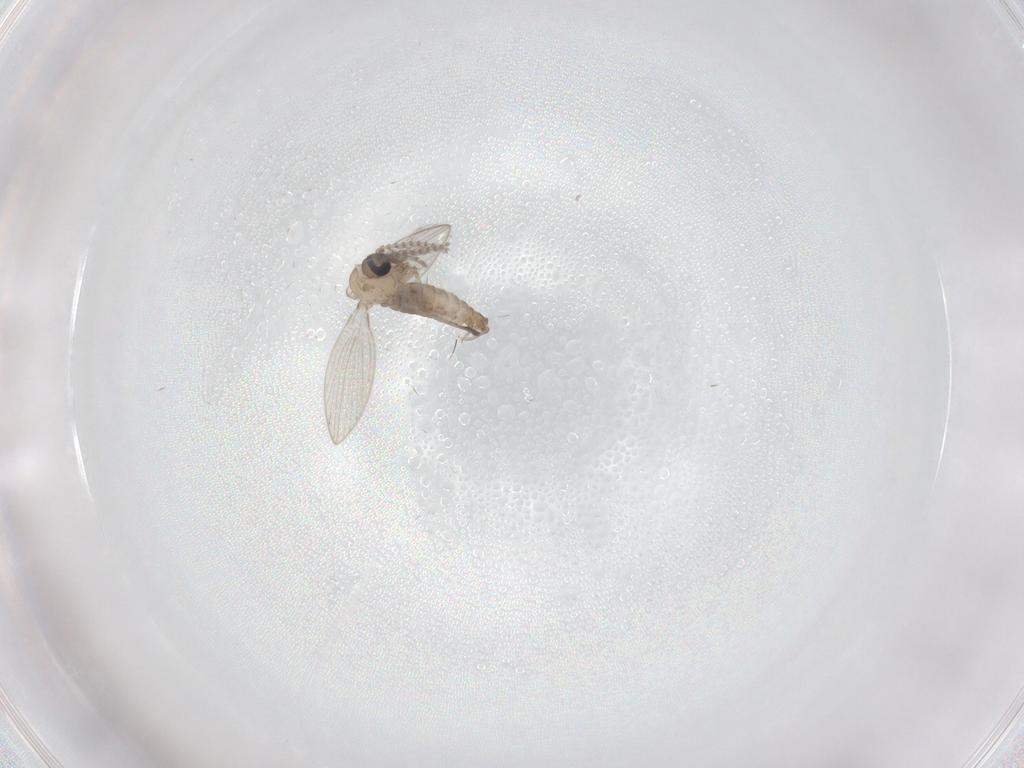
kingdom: Animalia
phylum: Arthropoda
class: Insecta
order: Diptera
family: Psychodidae
